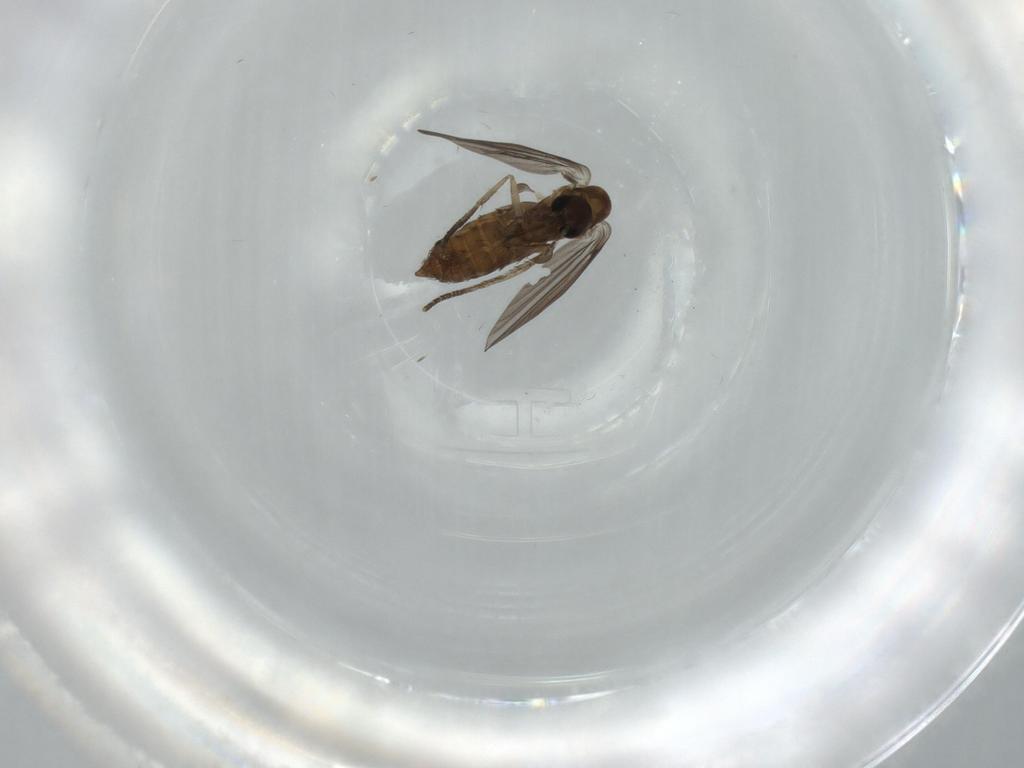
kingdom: Animalia
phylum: Arthropoda
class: Insecta
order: Diptera
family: Psychodidae
